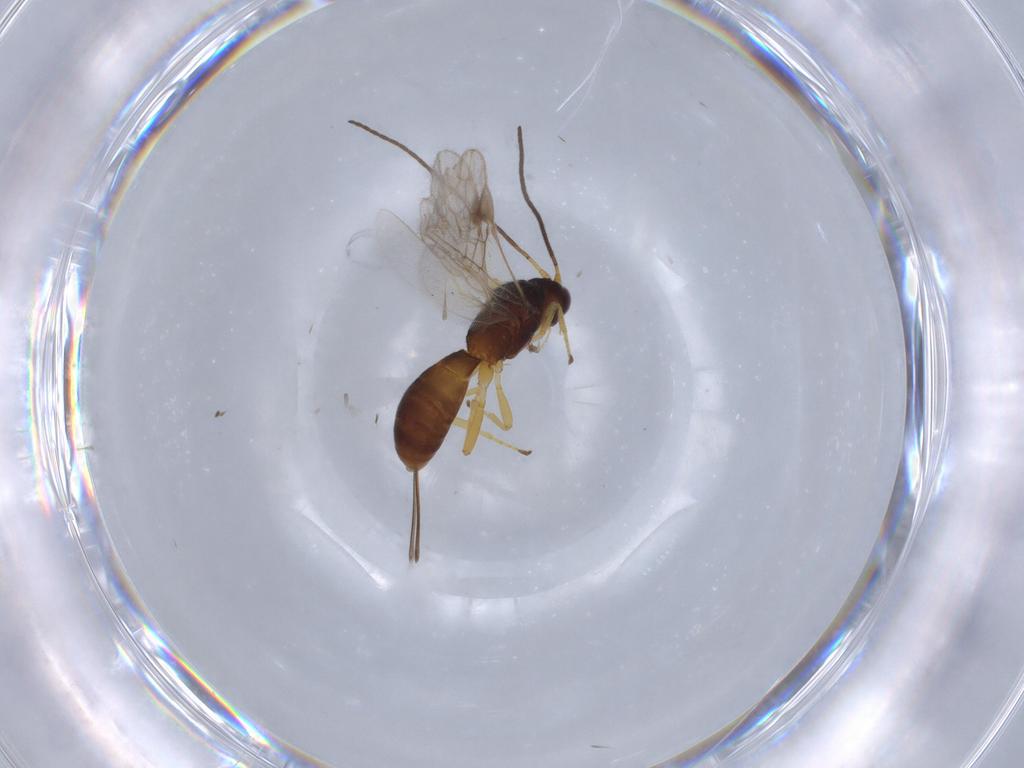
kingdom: Animalia
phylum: Arthropoda
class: Insecta
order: Hymenoptera
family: Braconidae
